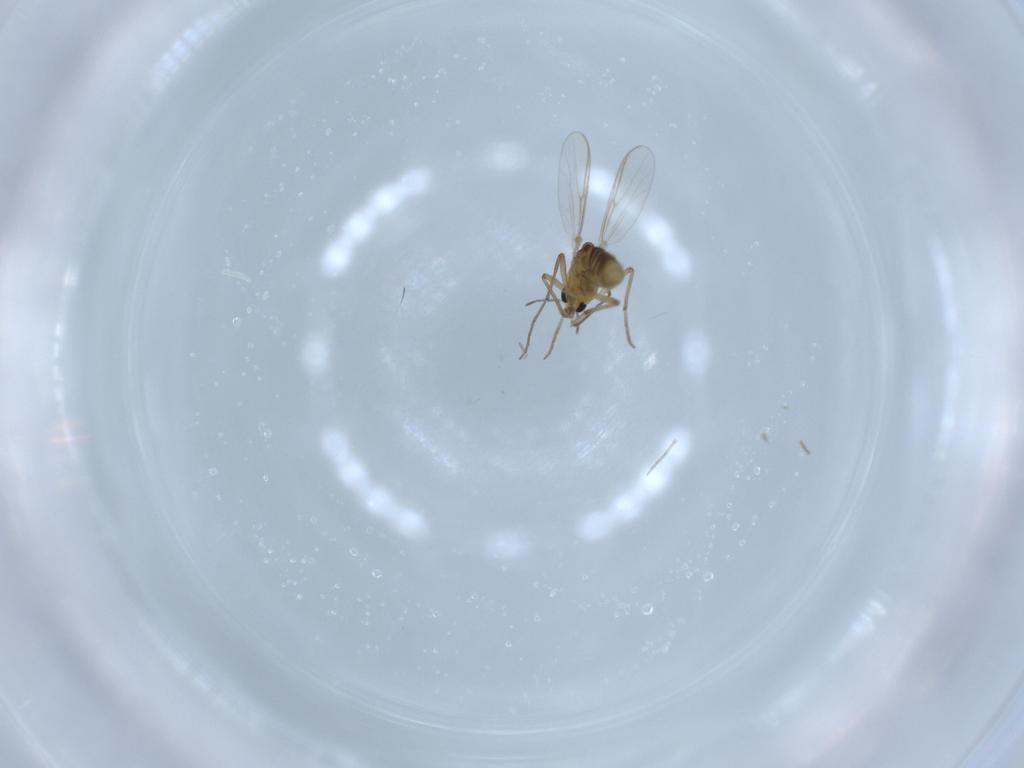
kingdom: Animalia
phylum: Arthropoda
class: Insecta
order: Diptera
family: Chironomidae
